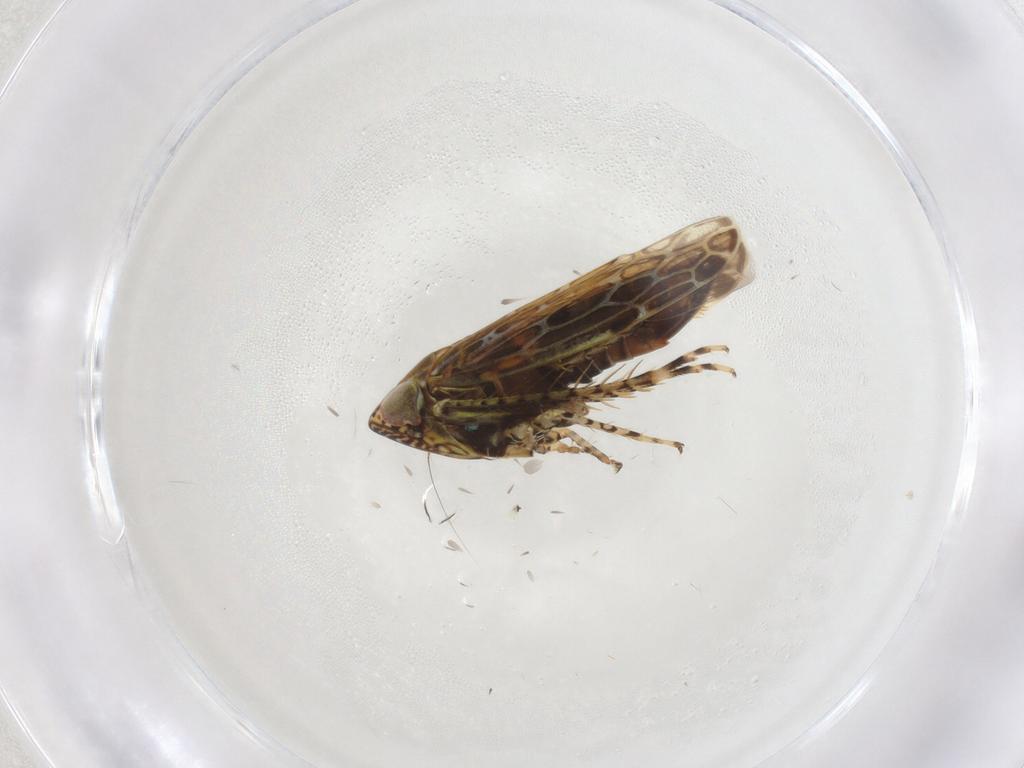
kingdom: Animalia
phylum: Arthropoda
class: Insecta
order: Hemiptera
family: Cicadellidae
